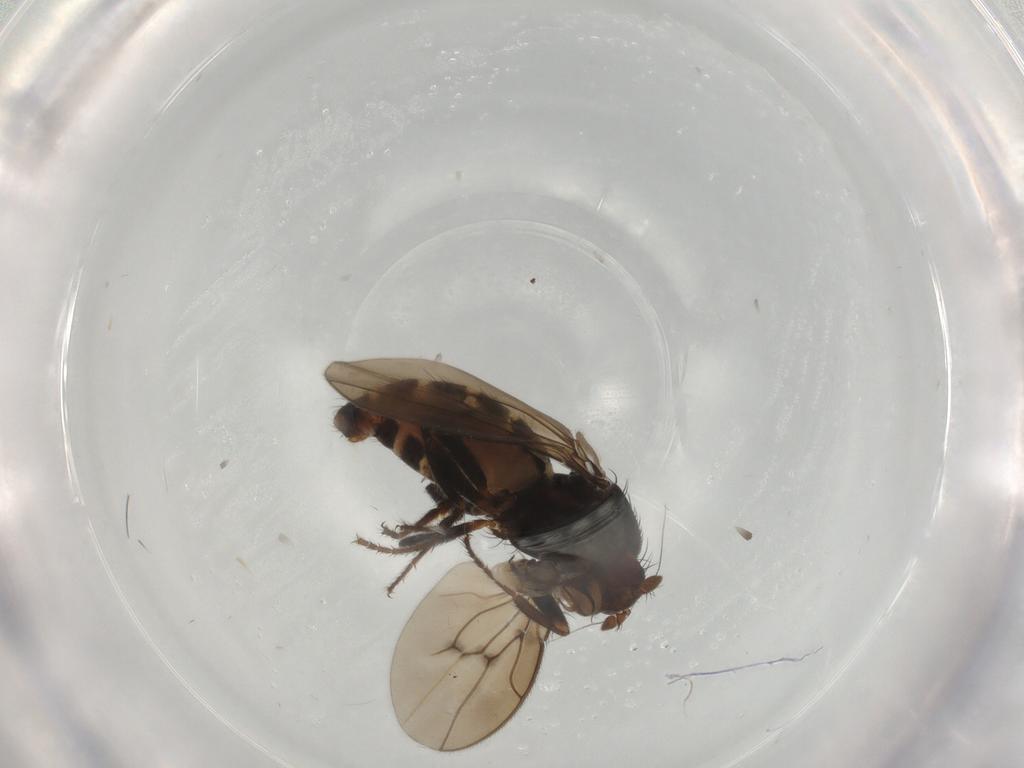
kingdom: Animalia
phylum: Arthropoda
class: Insecta
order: Diptera
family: Sphaeroceridae
